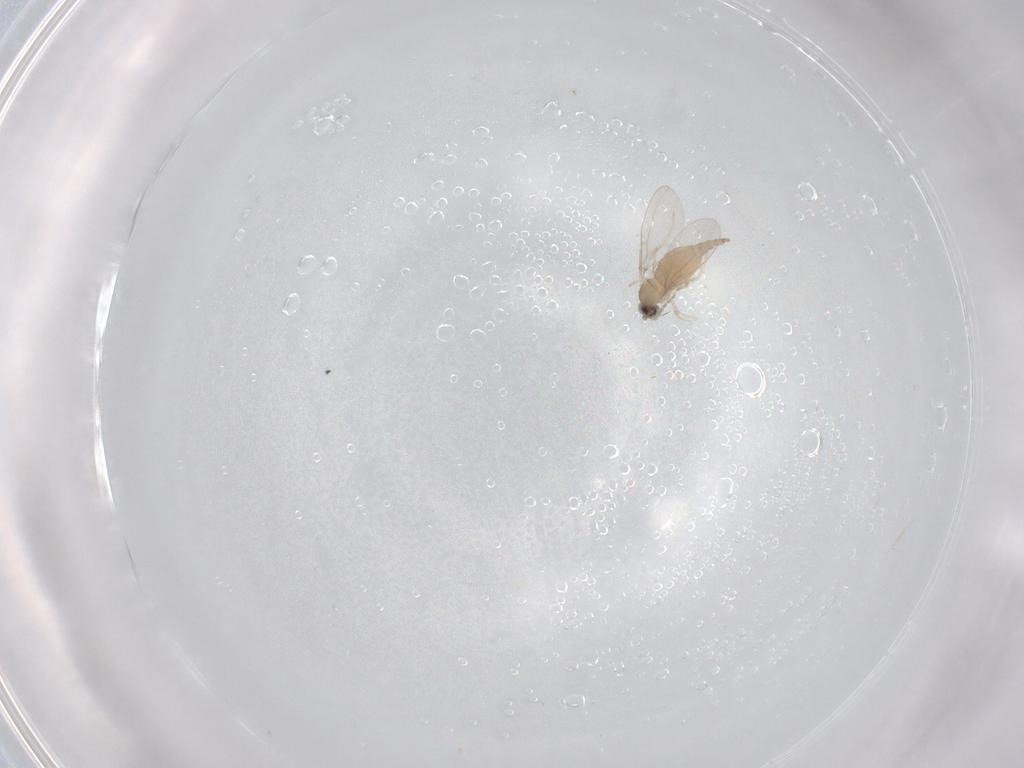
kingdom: Animalia
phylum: Arthropoda
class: Insecta
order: Diptera
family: Cecidomyiidae
